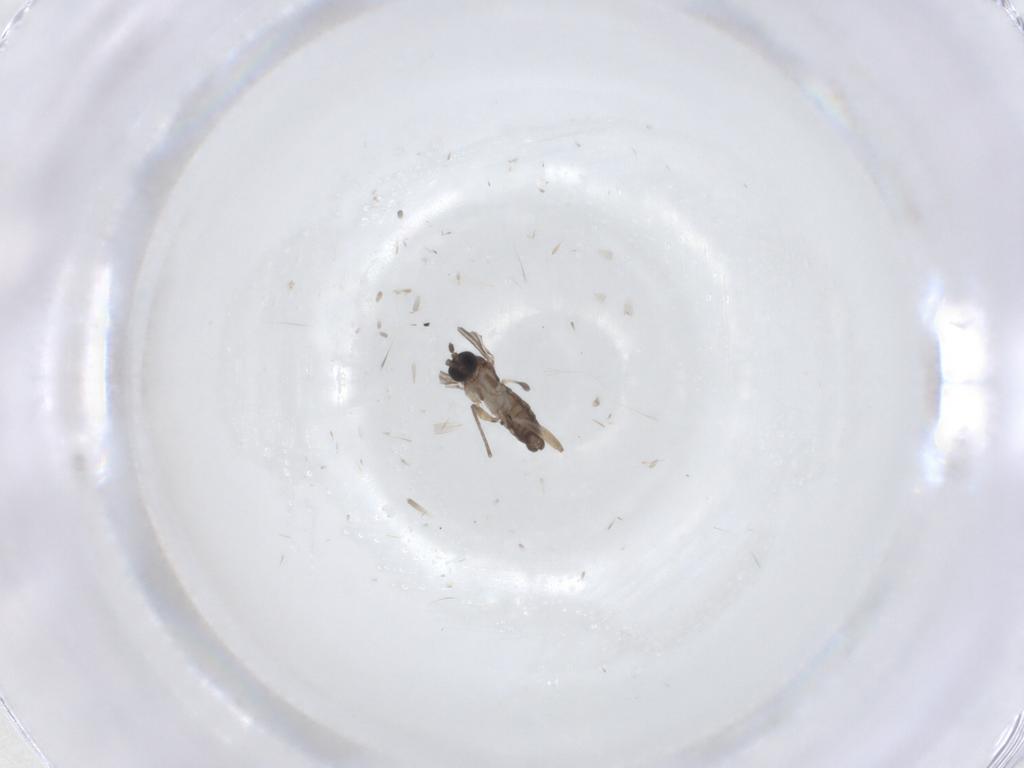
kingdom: Animalia
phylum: Arthropoda
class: Insecta
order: Diptera
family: Sciaridae
